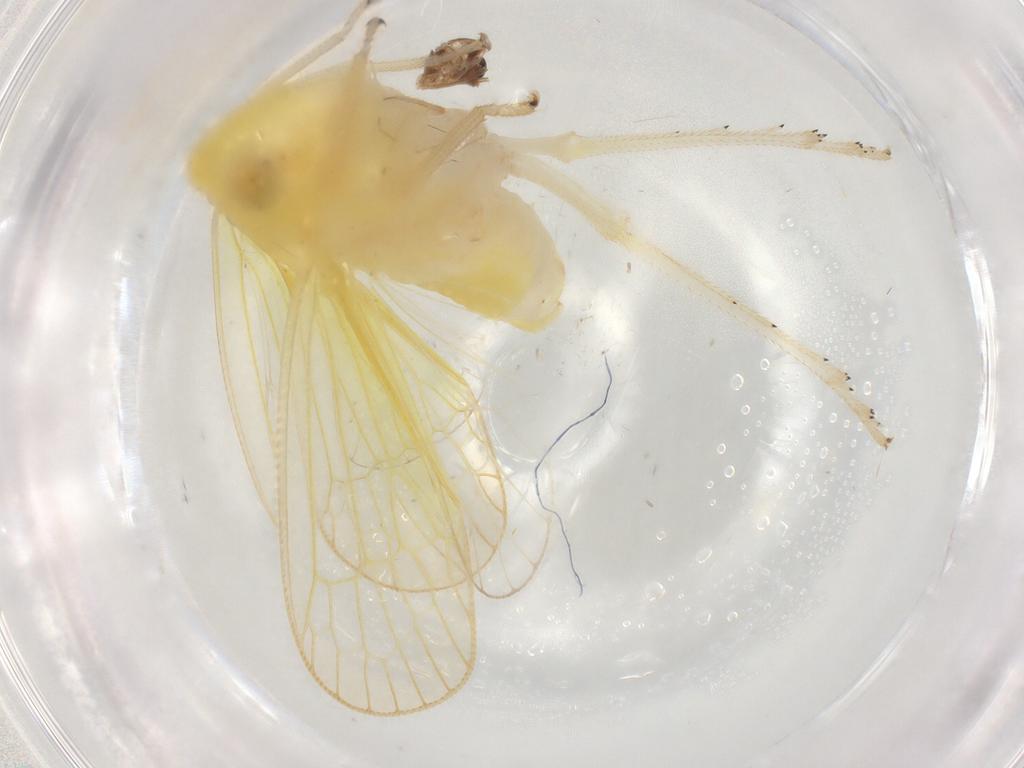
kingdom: Animalia
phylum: Arthropoda
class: Insecta
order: Hemiptera
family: Tropiduchidae
